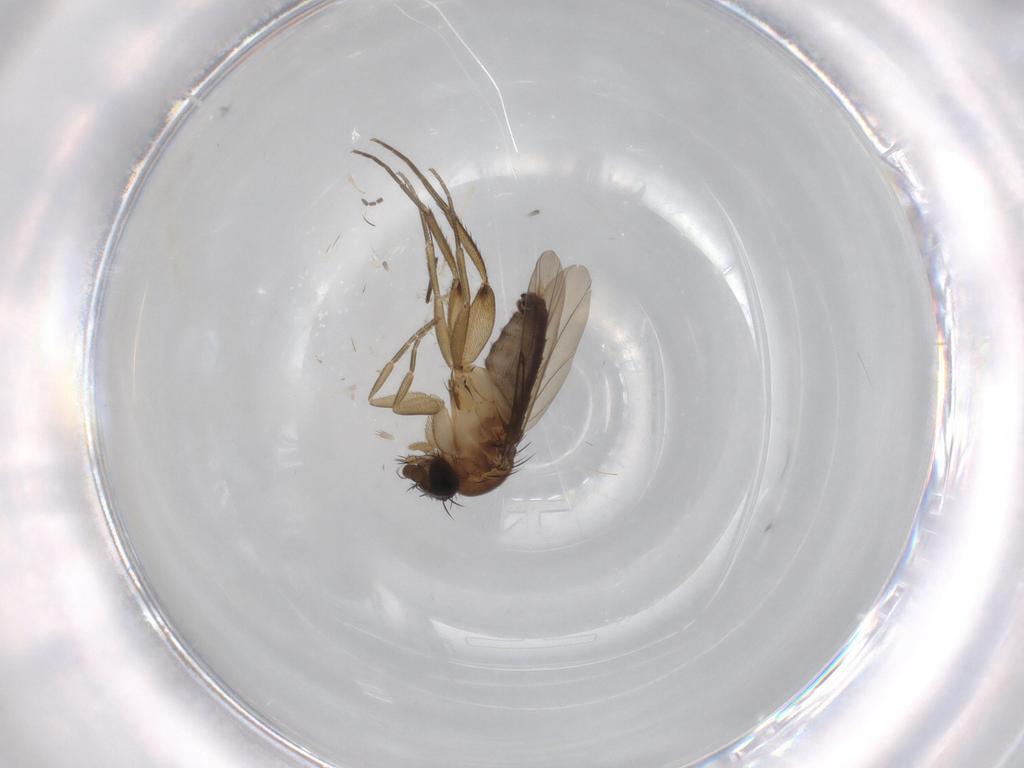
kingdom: Animalia
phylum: Arthropoda
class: Insecta
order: Diptera
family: Phoridae
